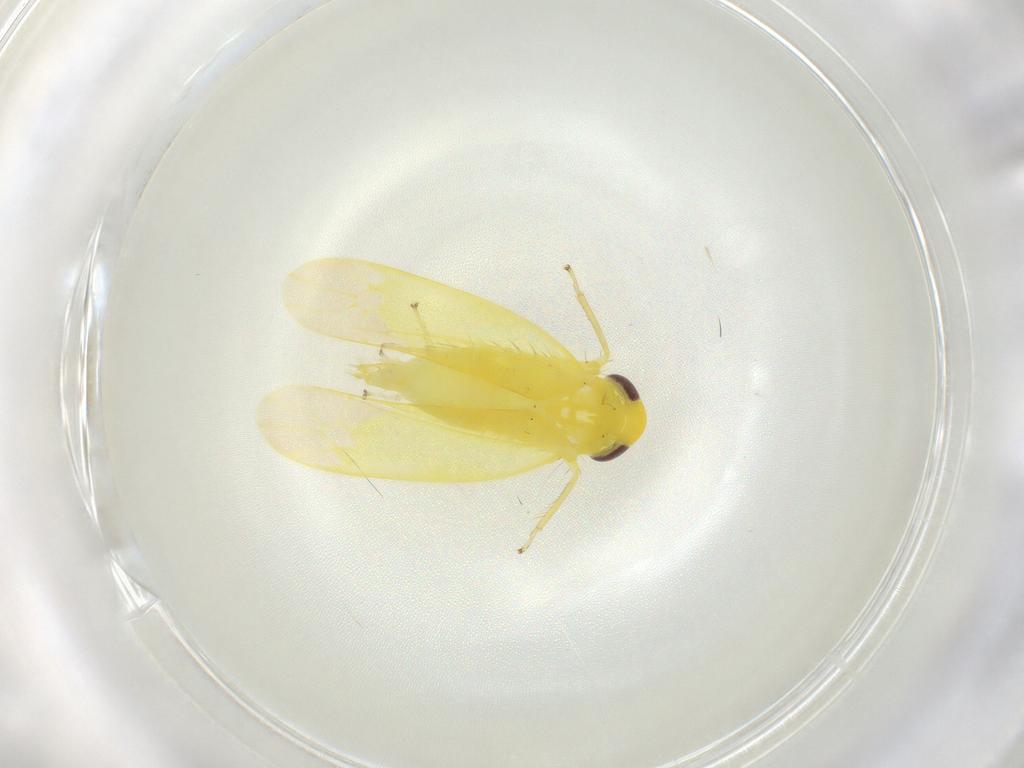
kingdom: Animalia
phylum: Arthropoda
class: Insecta
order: Hemiptera
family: Cicadellidae
